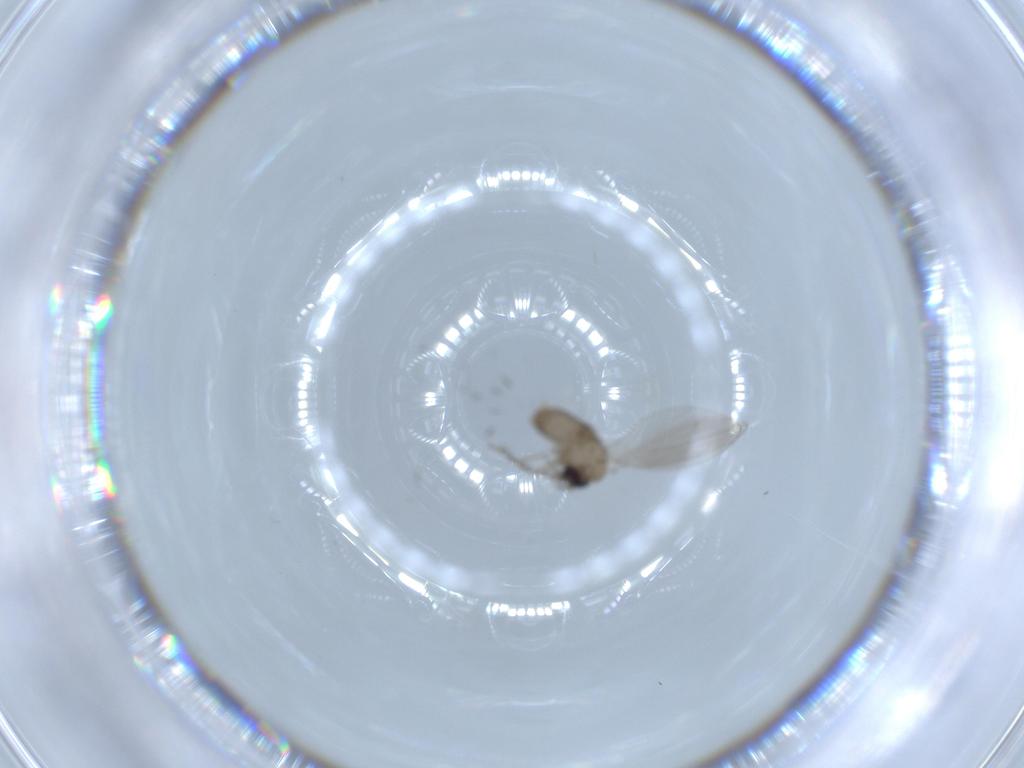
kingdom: Animalia
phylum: Arthropoda
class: Insecta
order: Diptera
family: Psychodidae
